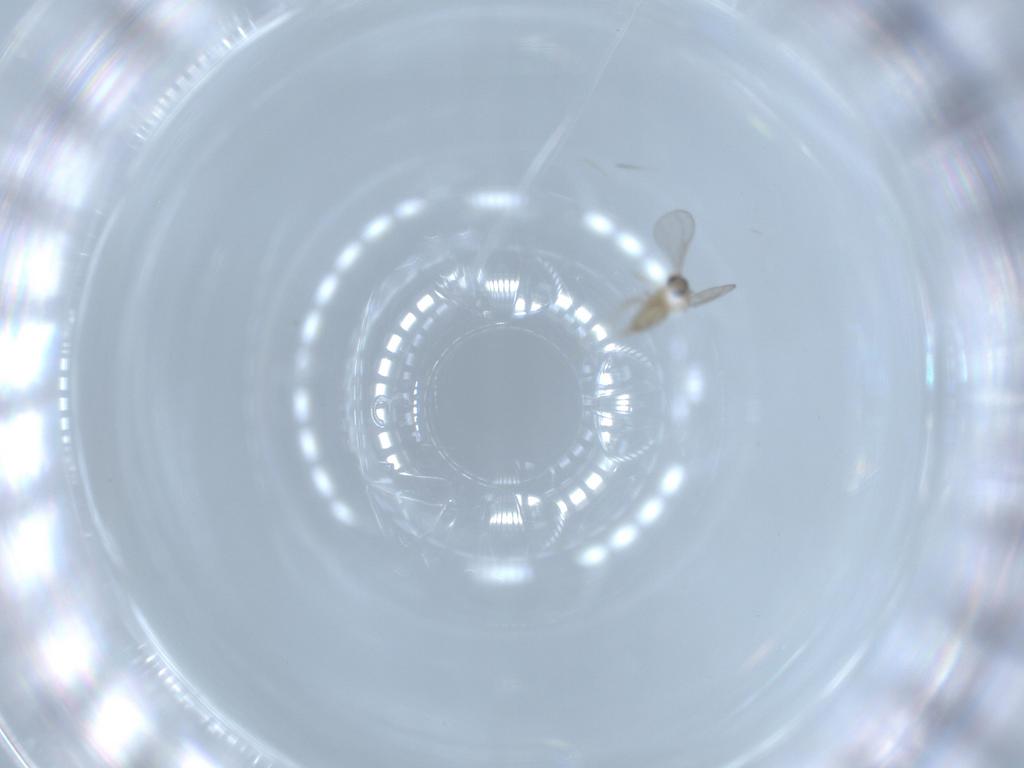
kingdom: Animalia
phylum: Arthropoda
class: Insecta
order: Diptera
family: Cecidomyiidae
